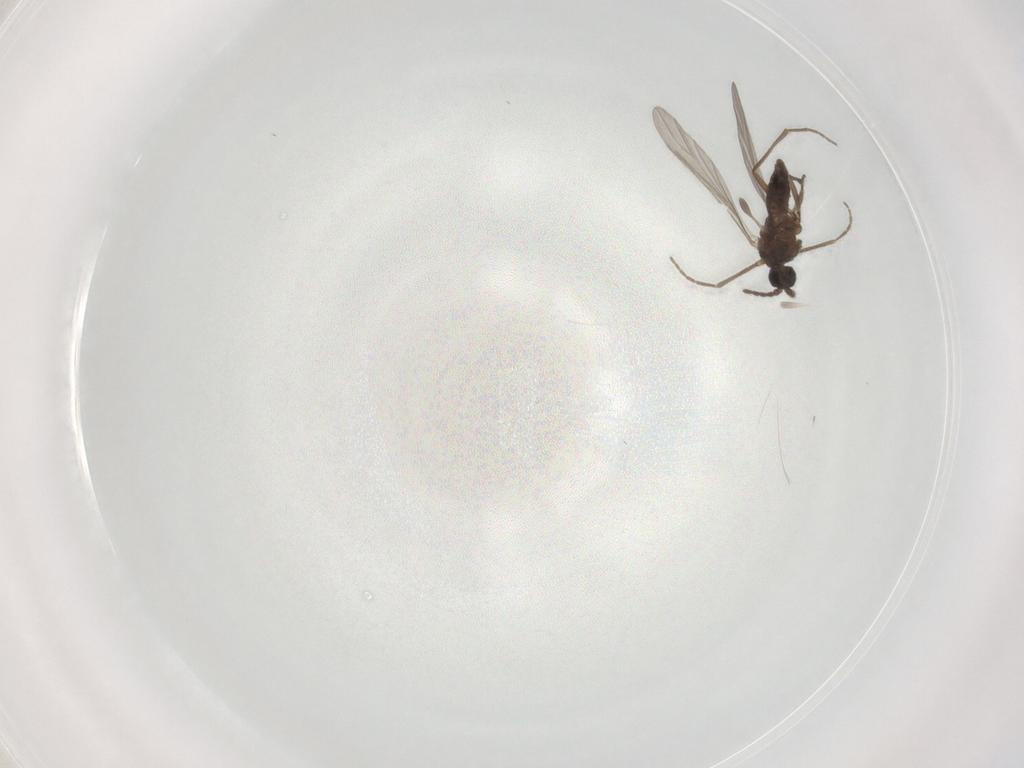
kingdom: Animalia
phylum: Arthropoda
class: Insecta
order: Diptera
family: Sciaridae
